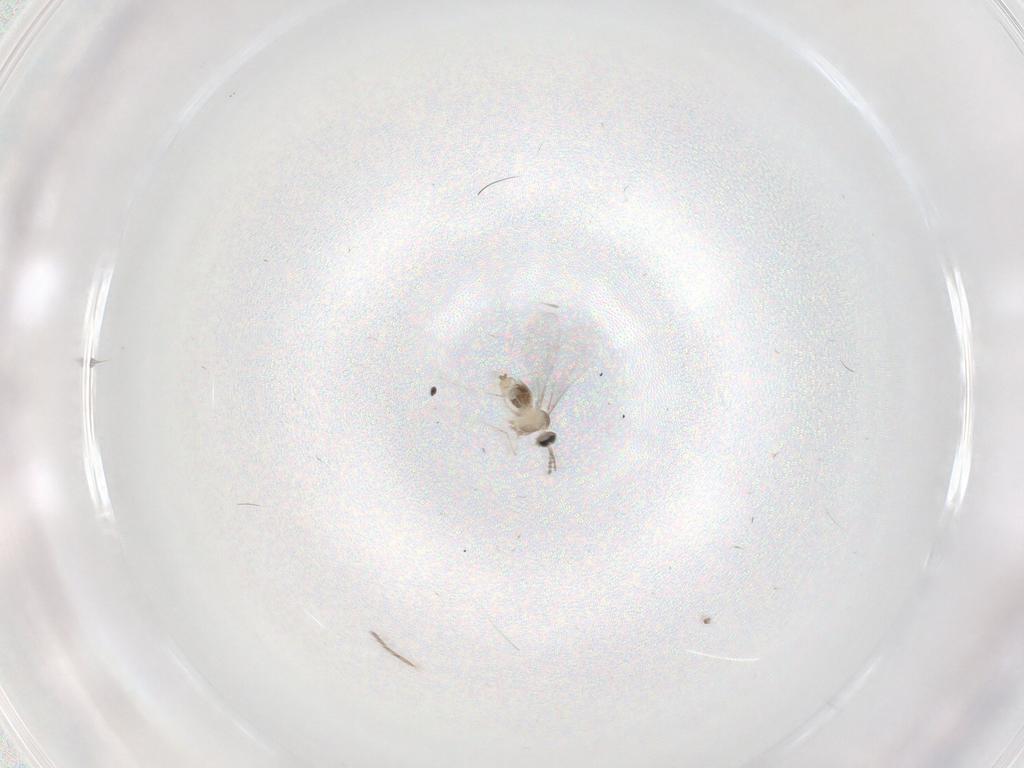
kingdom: Animalia
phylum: Arthropoda
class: Insecta
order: Diptera
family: Cecidomyiidae
